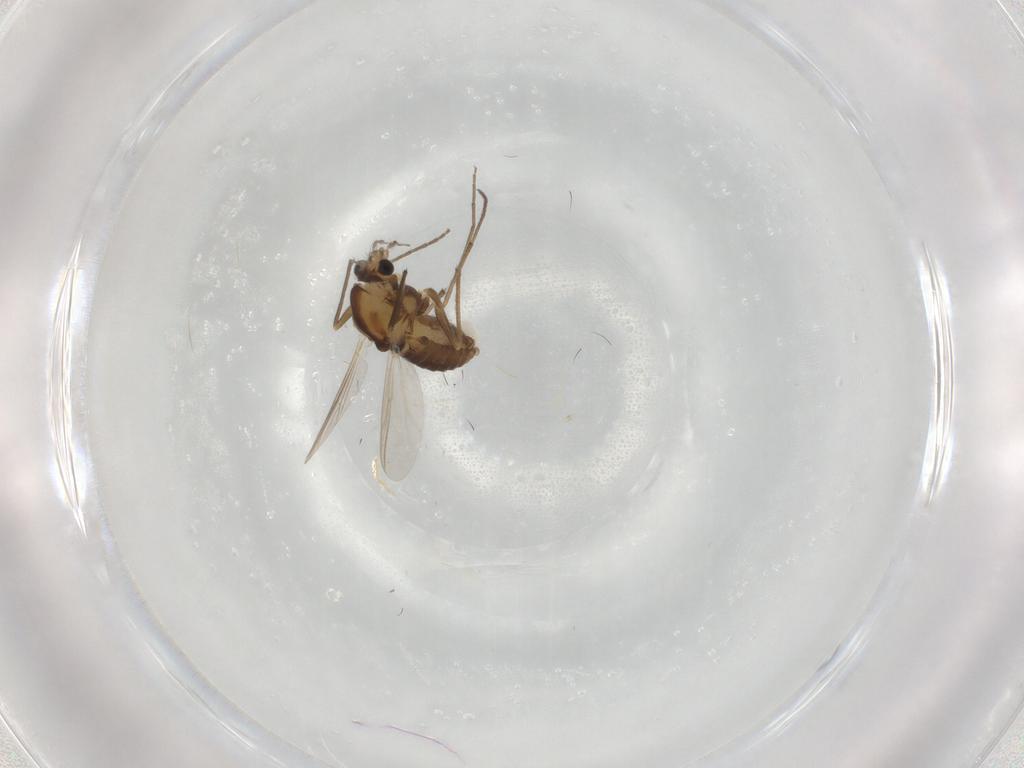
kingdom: Animalia
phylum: Arthropoda
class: Insecta
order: Diptera
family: Chironomidae
